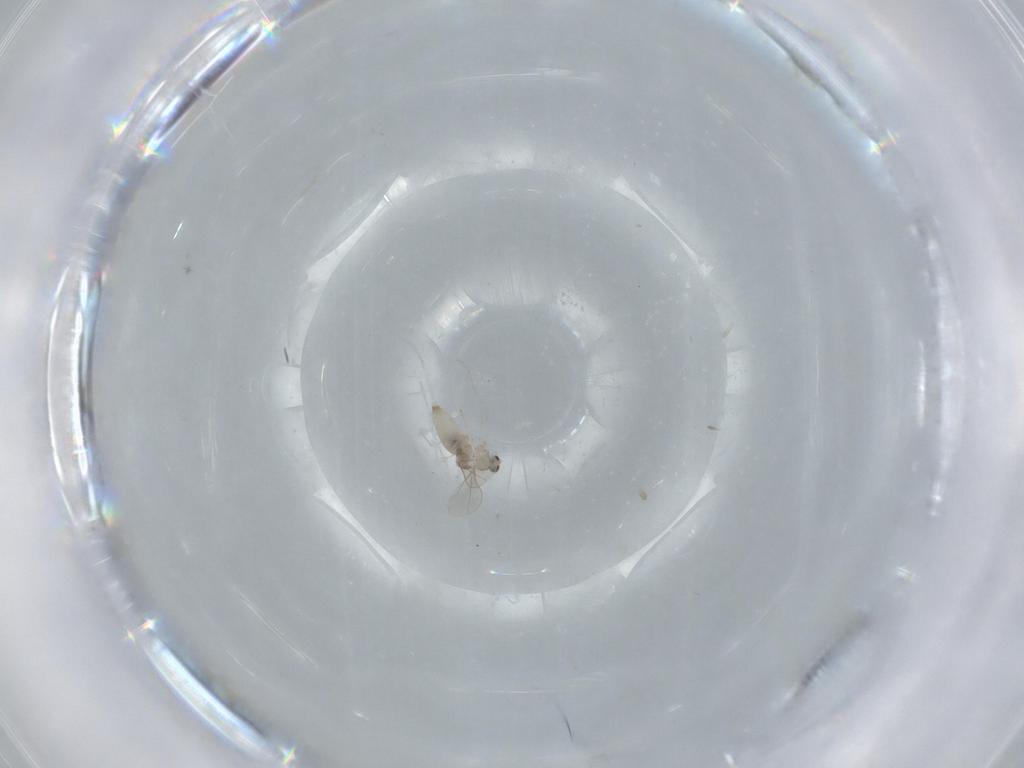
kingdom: Animalia
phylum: Arthropoda
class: Insecta
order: Diptera
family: Cecidomyiidae
